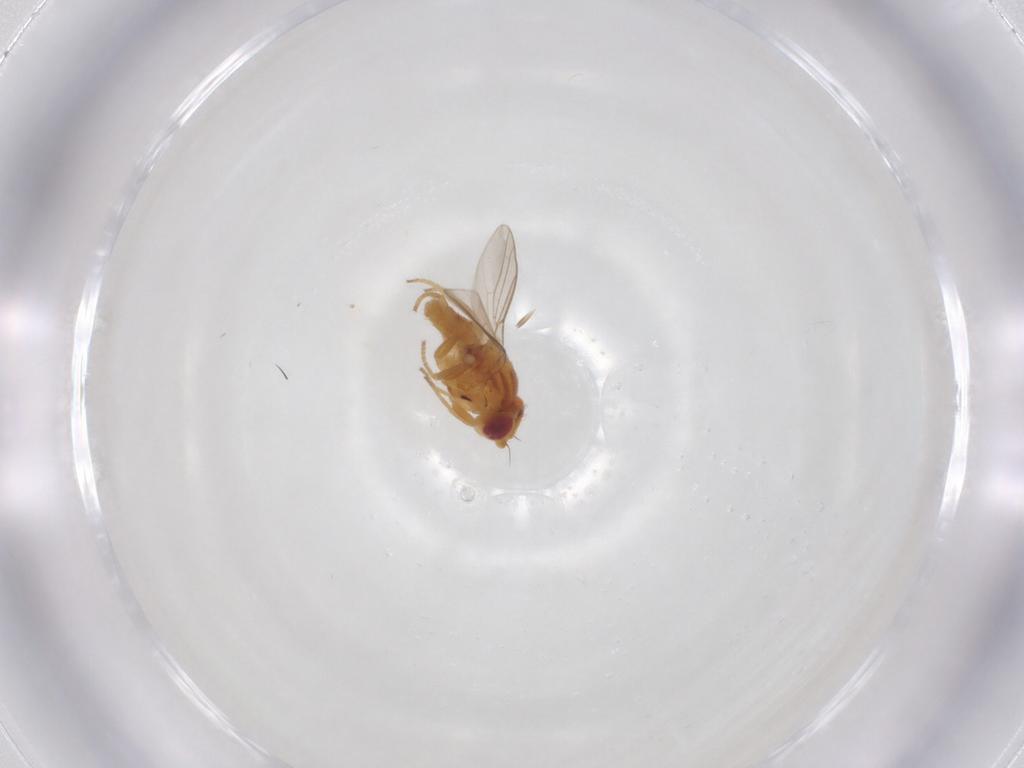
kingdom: Animalia
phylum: Arthropoda
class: Insecta
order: Diptera
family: Chloropidae
